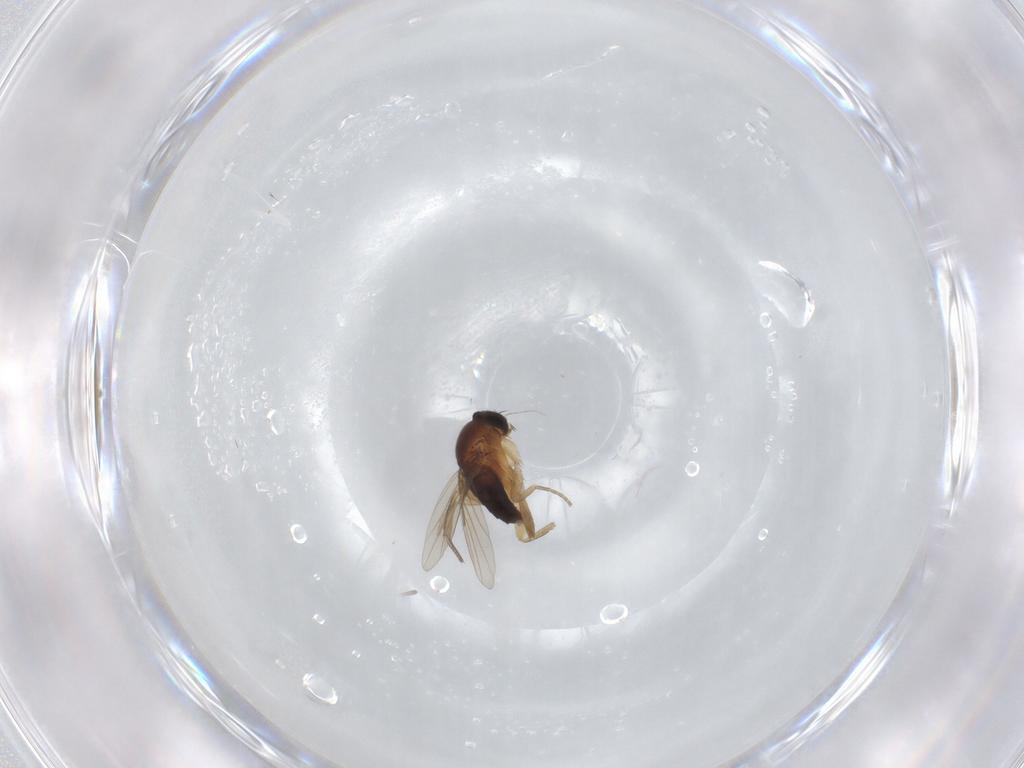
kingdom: Animalia
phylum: Arthropoda
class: Insecta
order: Diptera
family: Phoridae
